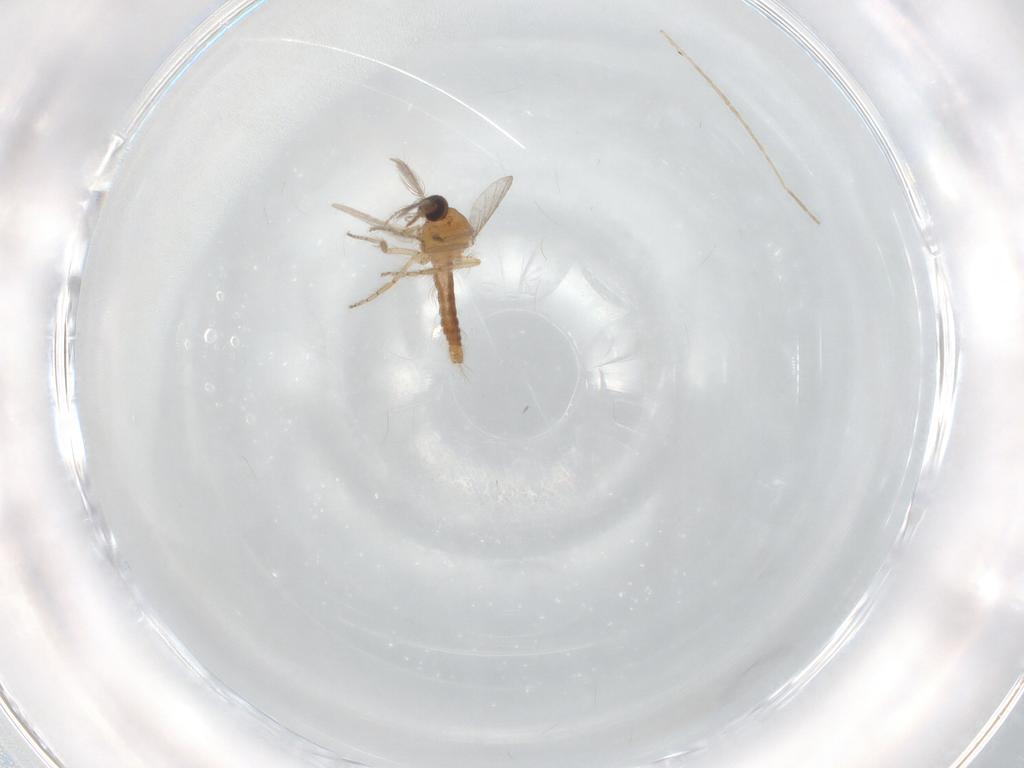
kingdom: Animalia
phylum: Arthropoda
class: Insecta
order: Diptera
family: Ceratopogonidae
